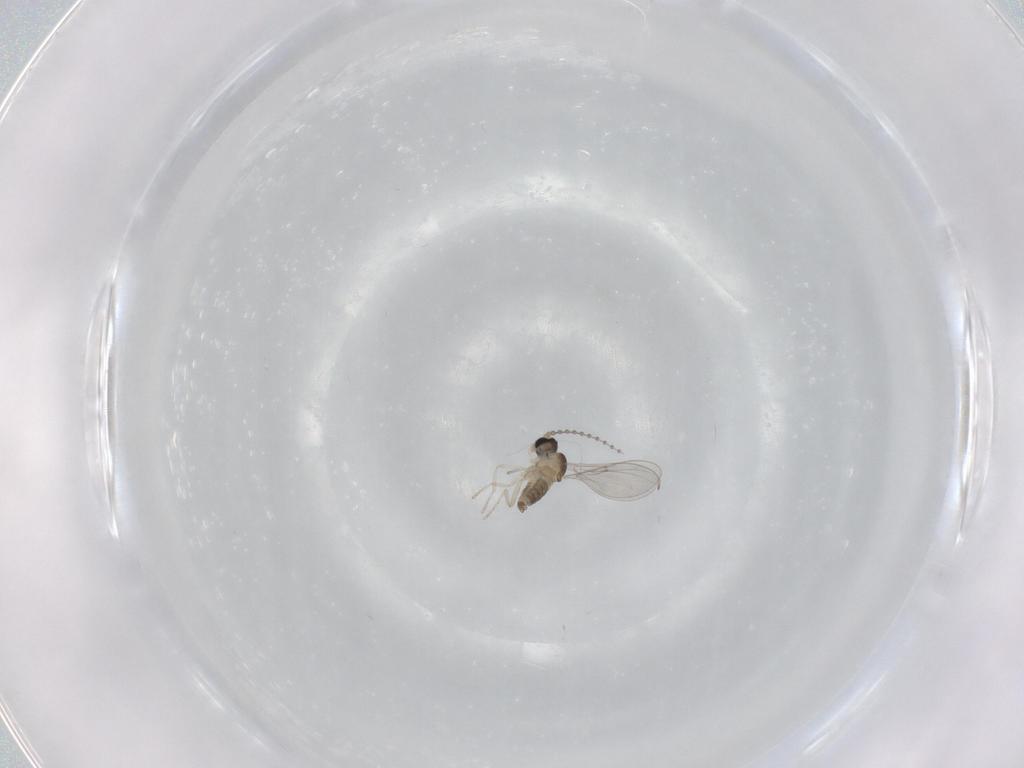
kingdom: Animalia
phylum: Arthropoda
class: Insecta
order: Diptera
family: Cecidomyiidae
